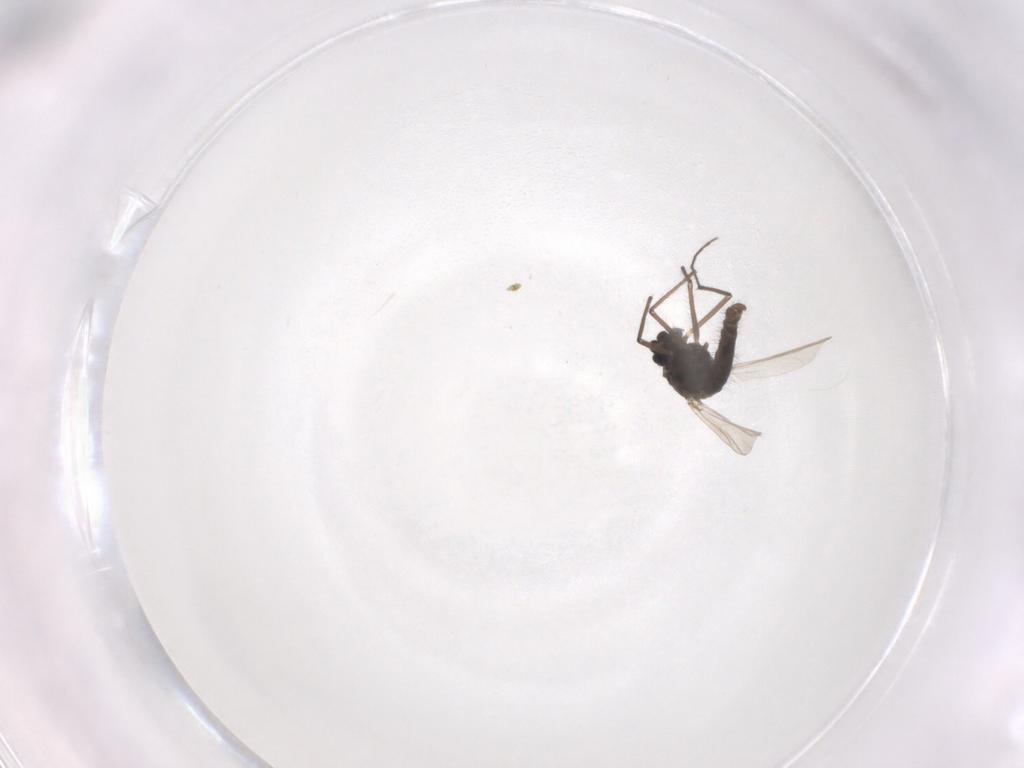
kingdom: Animalia
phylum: Arthropoda
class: Insecta
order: Diptera
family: Chironomidae
